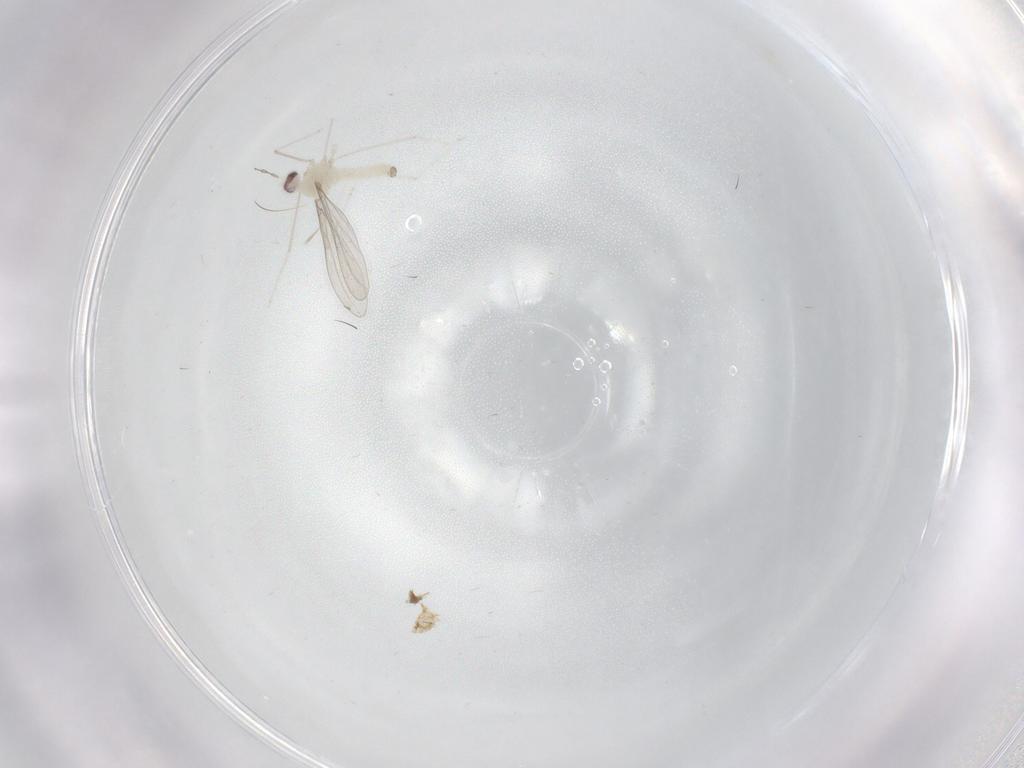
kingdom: Animalia
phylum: Arthropoda
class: Insecta
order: Diptera
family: Cecidomyiidae
